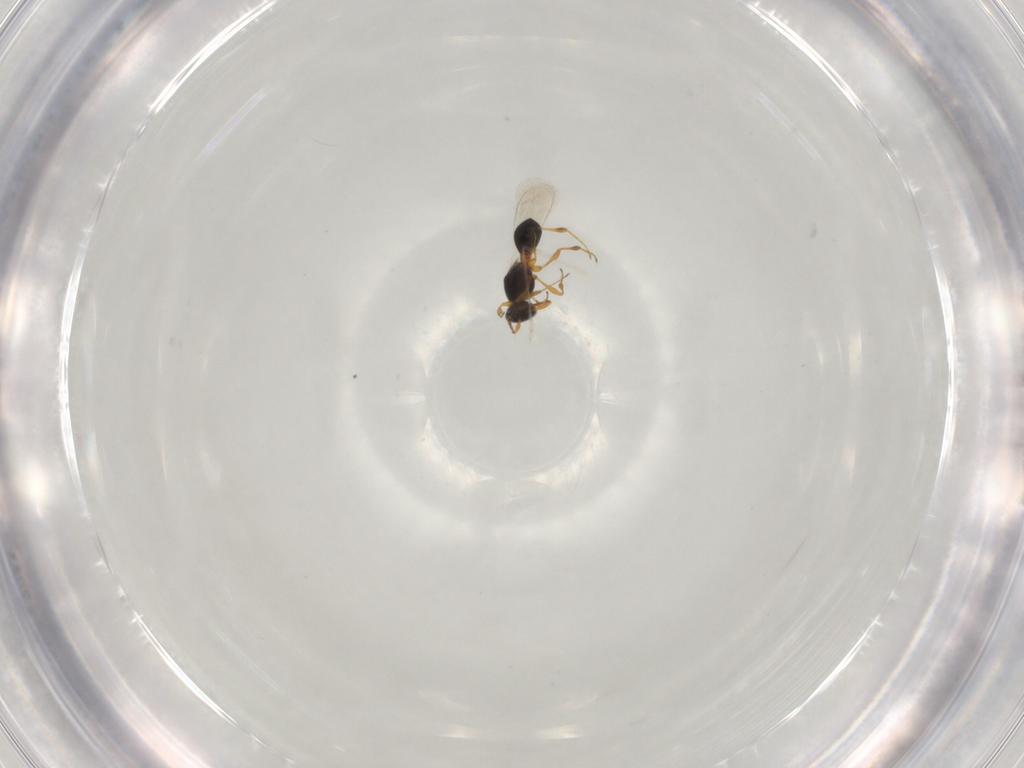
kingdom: Animalia
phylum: Arthropoda
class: Insecta
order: Hymenoptera
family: Platygastridae
